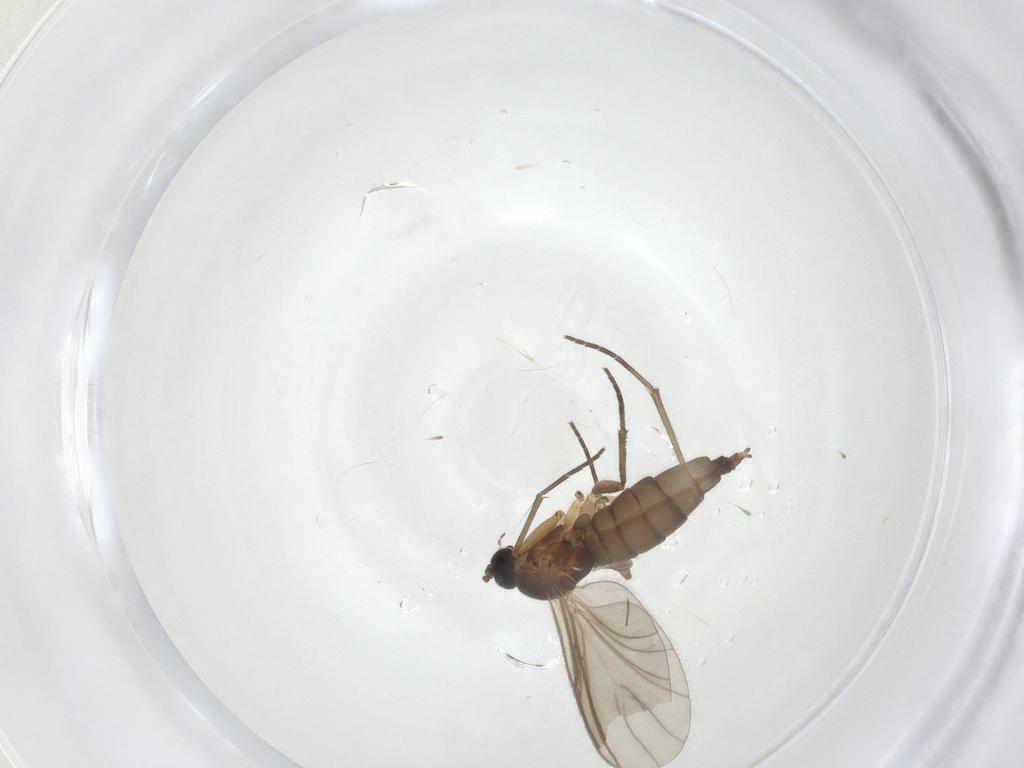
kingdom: Animalia
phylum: Arthropoda
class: Insecta
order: Diptera
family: Sciaridae
